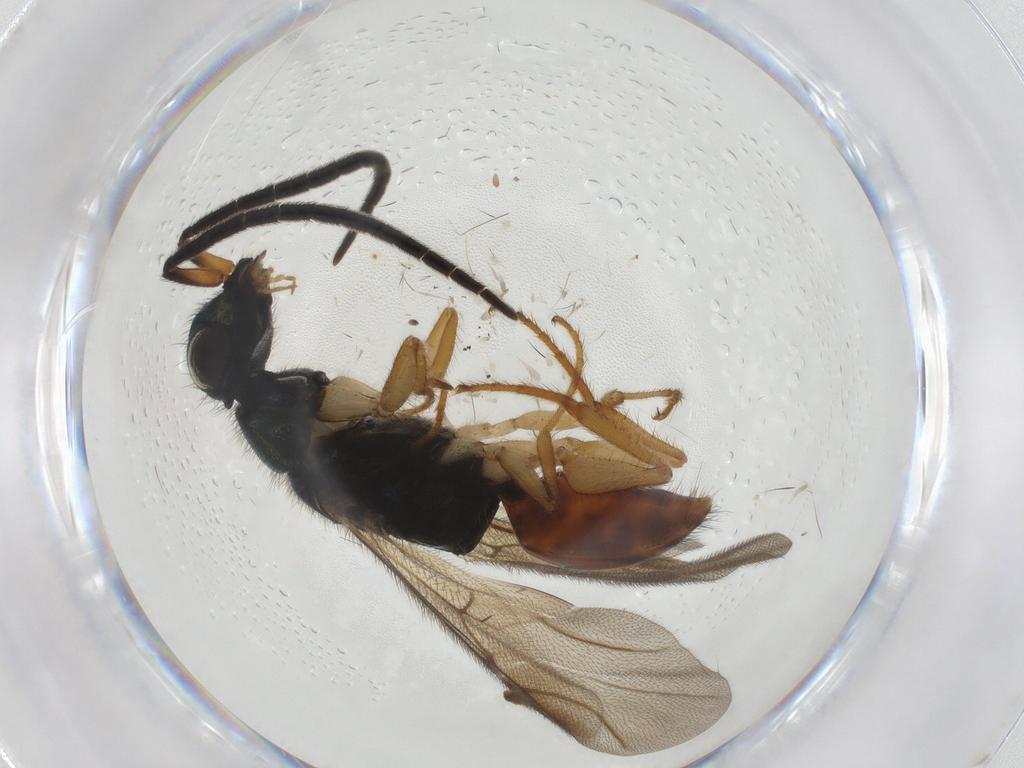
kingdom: Animalia
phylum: Arthropoda
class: Insecta
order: Hymenoptera
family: Chrysididae
